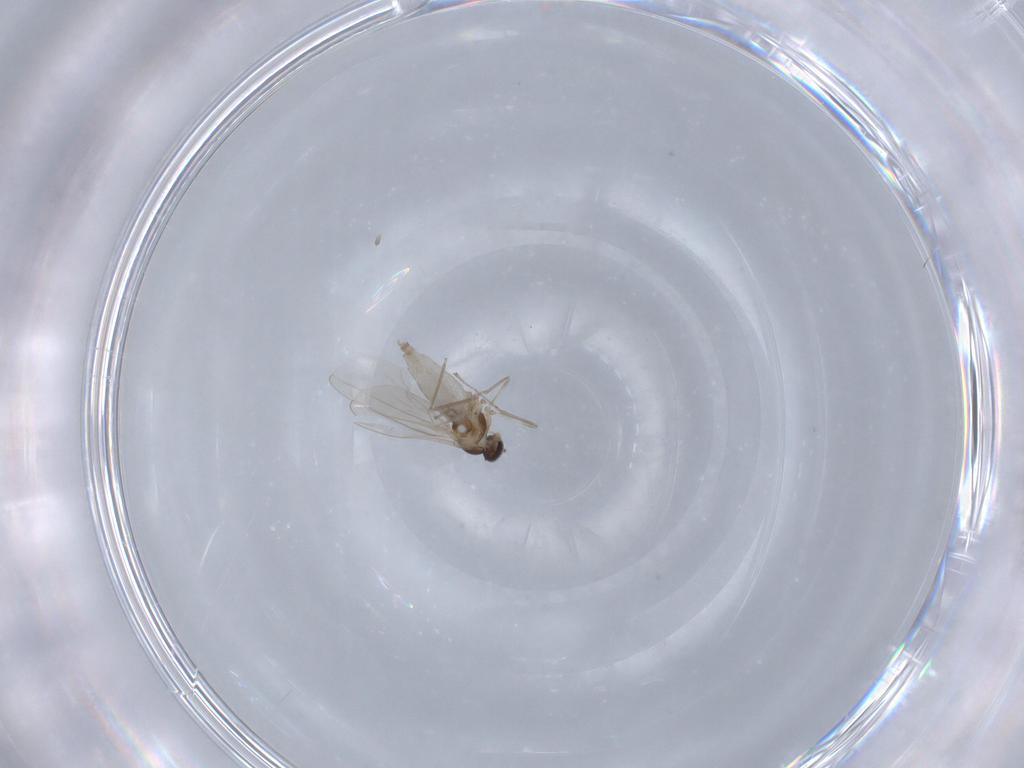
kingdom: Animalia
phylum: Arthropoda
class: Insecta
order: Diptera
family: Cecidomyiidae
